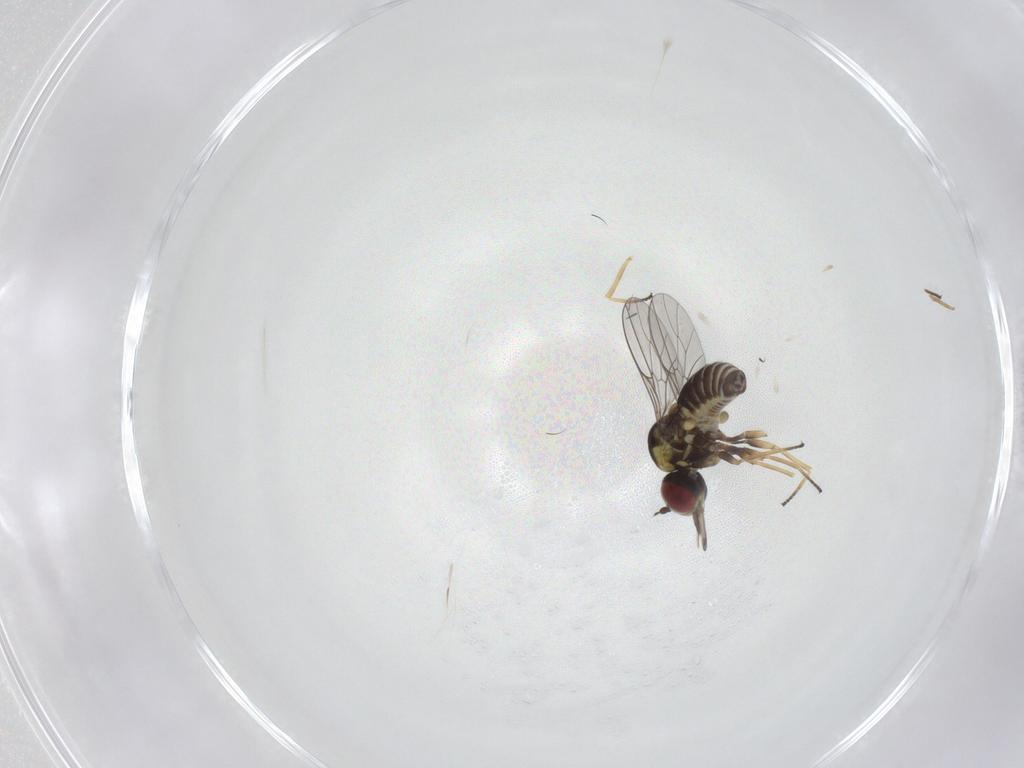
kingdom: Animalia
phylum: Arthropoda
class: Insecta
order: Diptera
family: Bombyliidae
